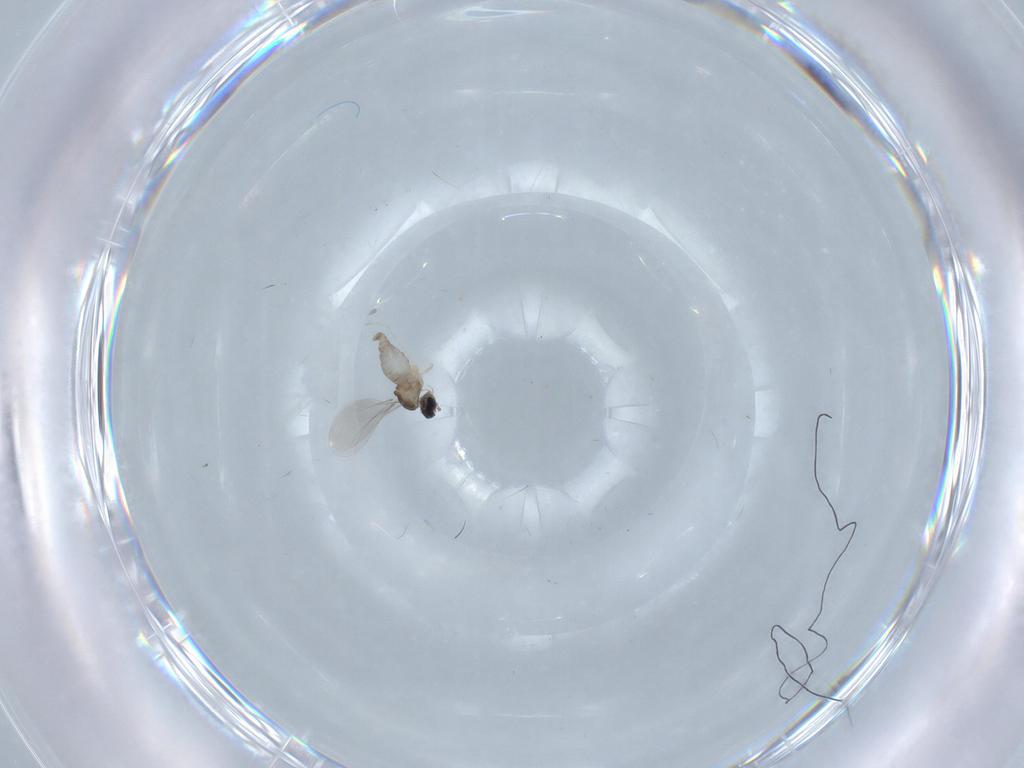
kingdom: Animalia
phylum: Arthropoda
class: Insecta
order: Diptera
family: Cecidomyiidae
